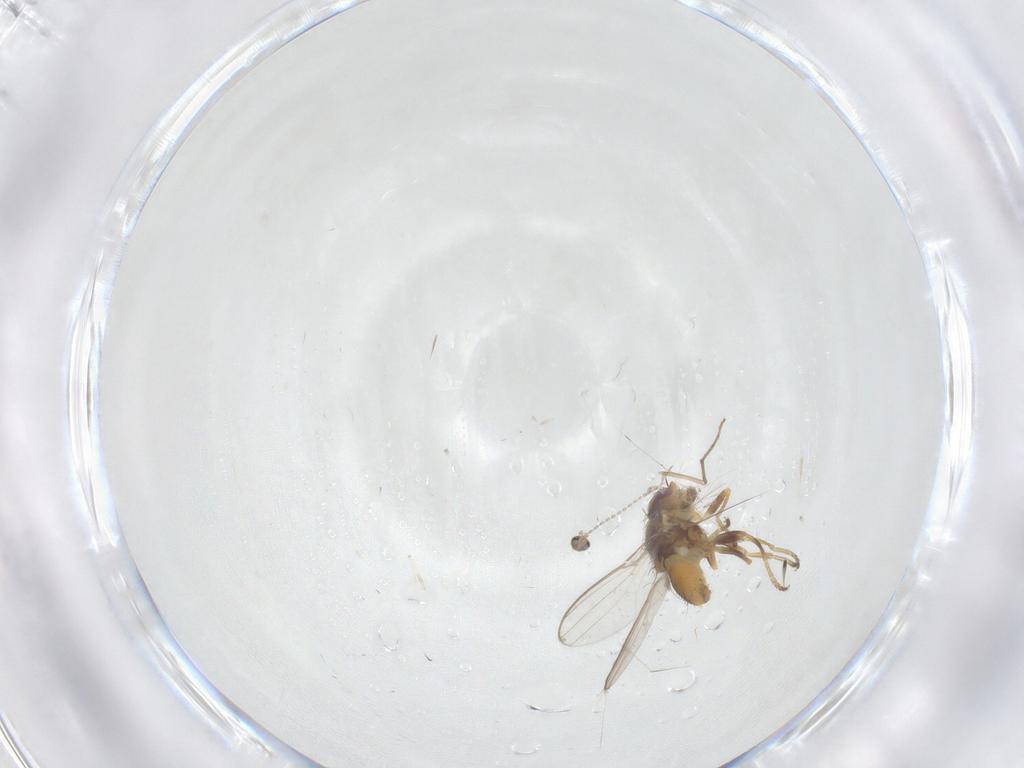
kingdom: Animalia
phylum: Arthropoda
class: Insecta
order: Diptera
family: Chloropidae
